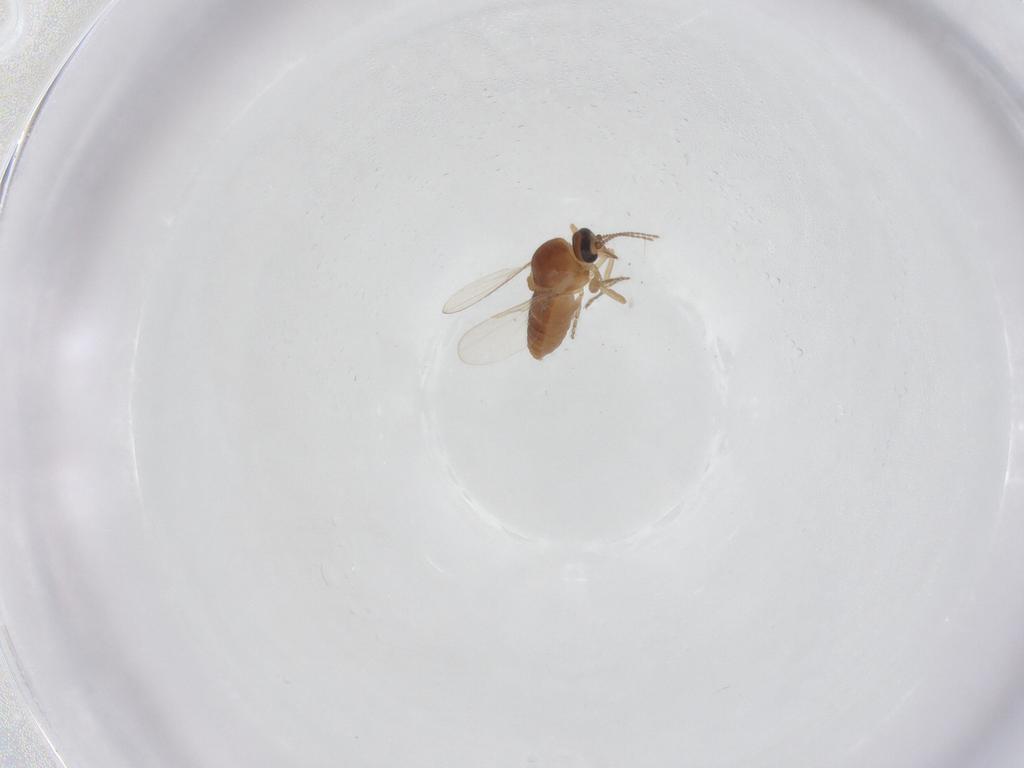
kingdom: Animalia
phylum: Arthropoda
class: Insecta
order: Diptera
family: Ceratopogonidae
